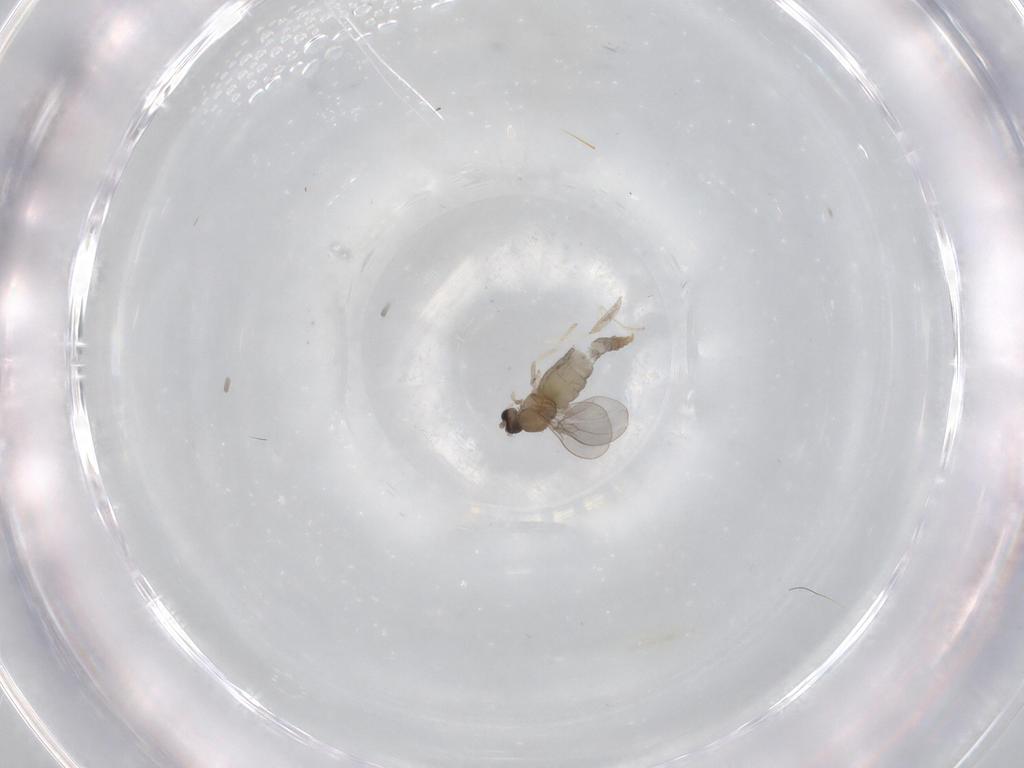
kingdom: Animalia
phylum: Arthropoda
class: Insecta
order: Diptera
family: Cecidomyiidae
